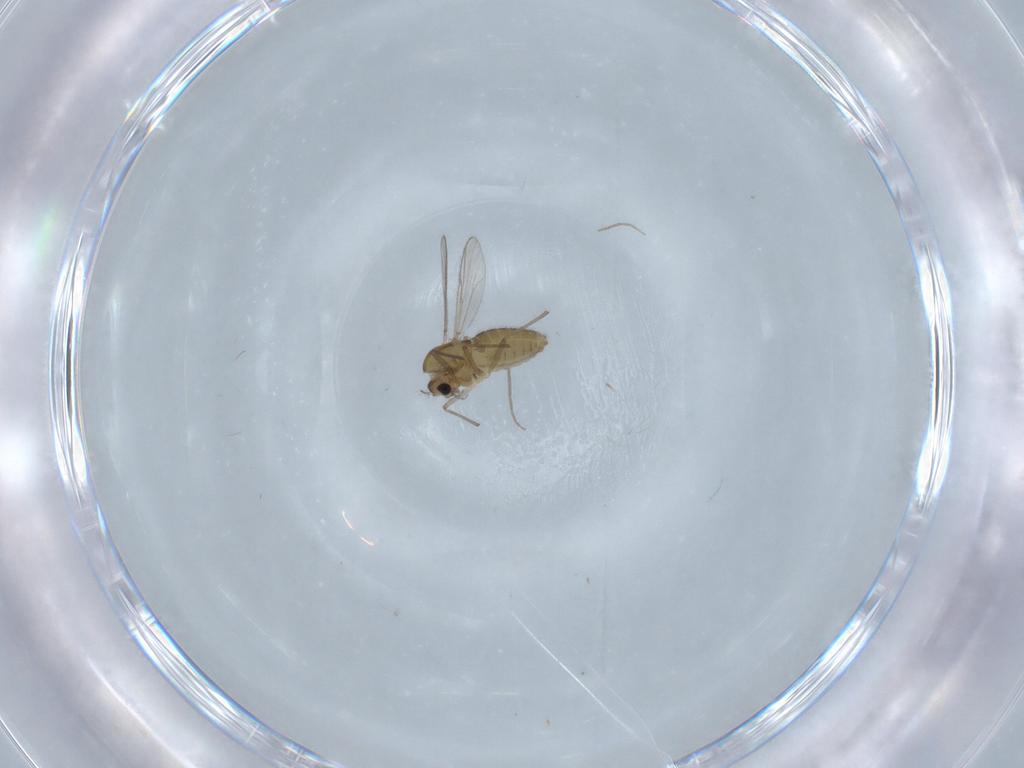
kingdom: Animalia
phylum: Arthropoda
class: Insecta
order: Diptera
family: Chironomidae
